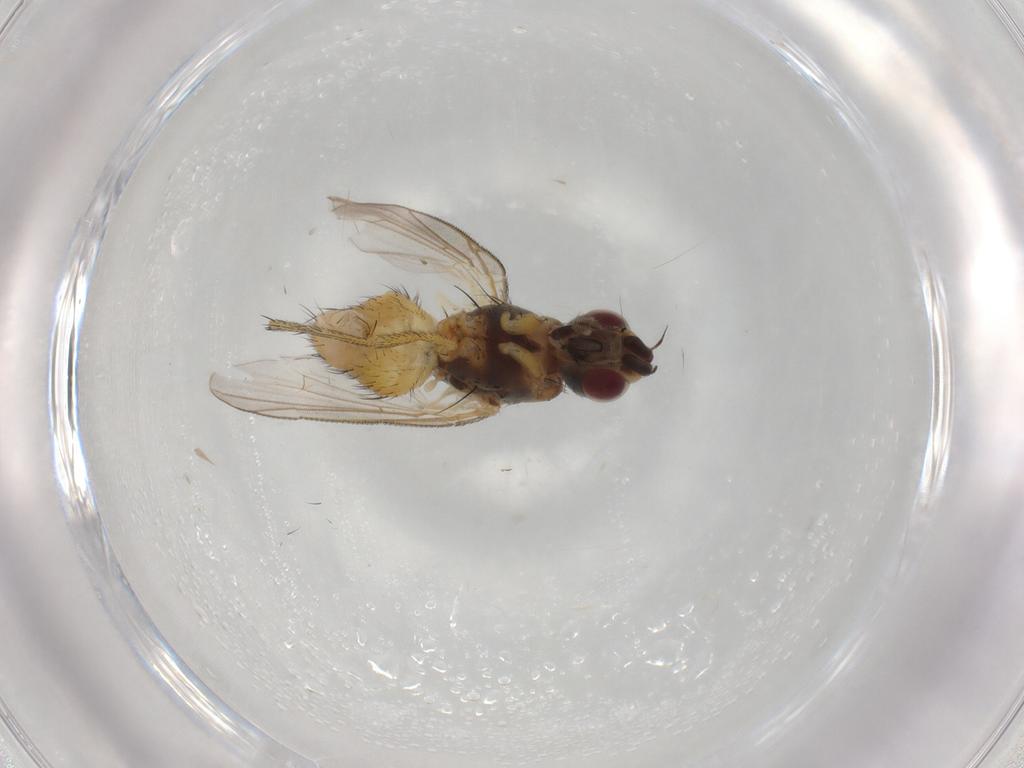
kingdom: Animalia
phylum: Arthropoda
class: Insecta
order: Diptera
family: Muscidae
